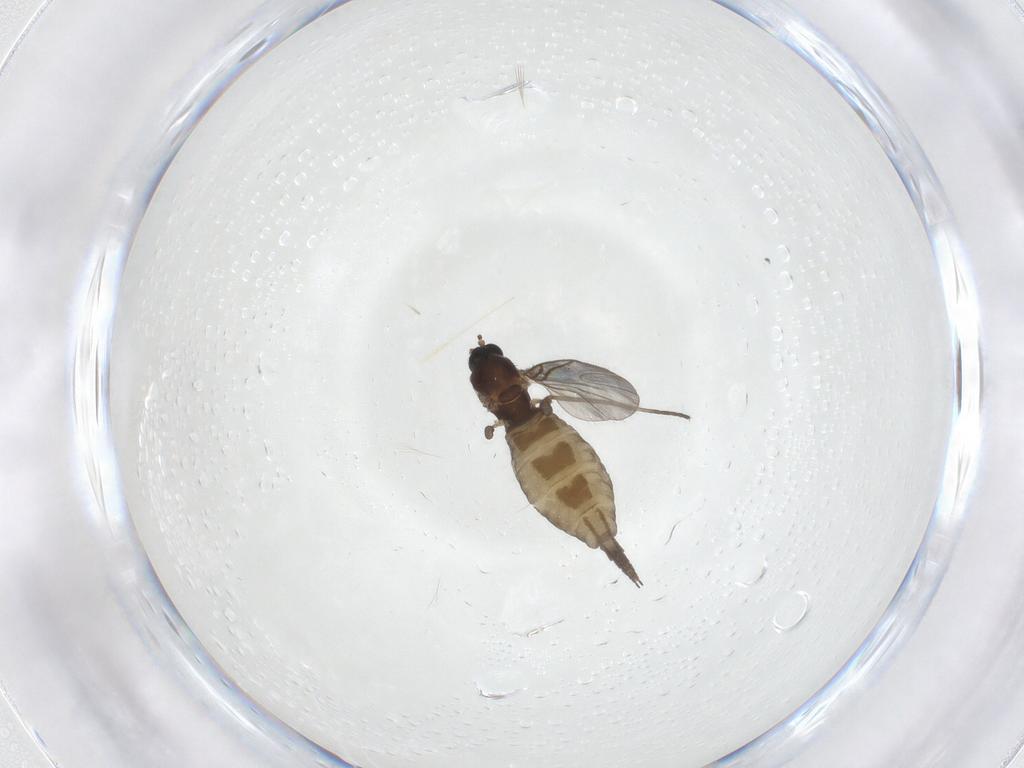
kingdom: Animalia
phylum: Arthropoda
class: Insecta
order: Diptera
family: Sciaridae
